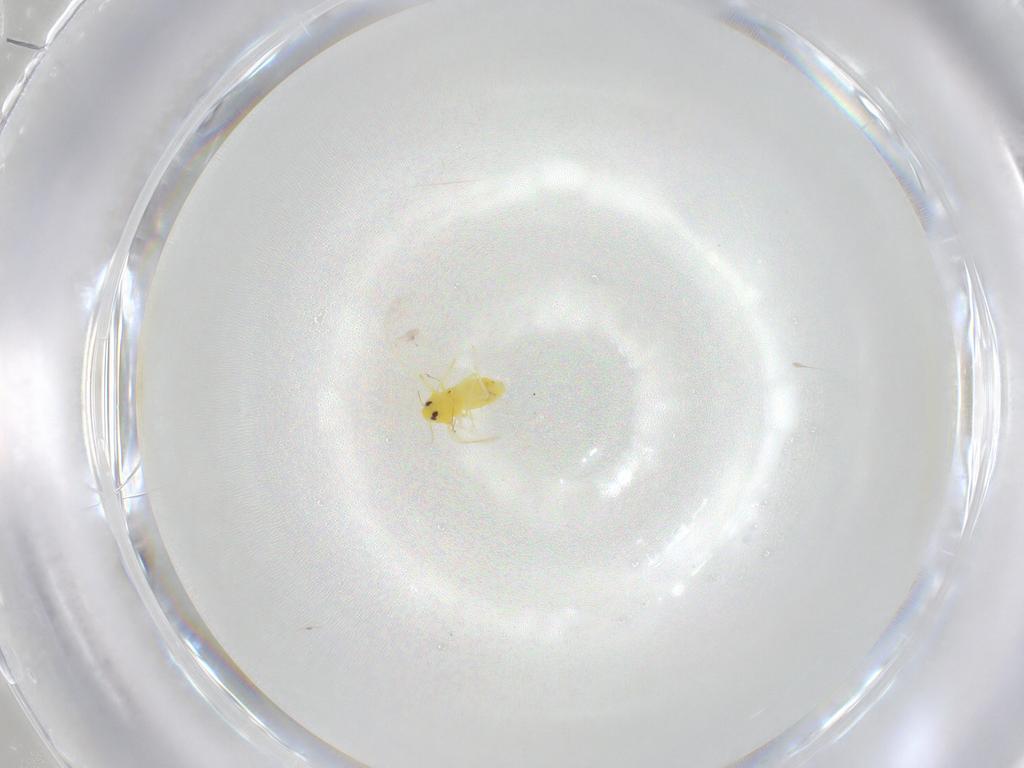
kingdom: Animalia
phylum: Arthropoda
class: Insecta
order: Hemiptera
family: Aleyrodidae
